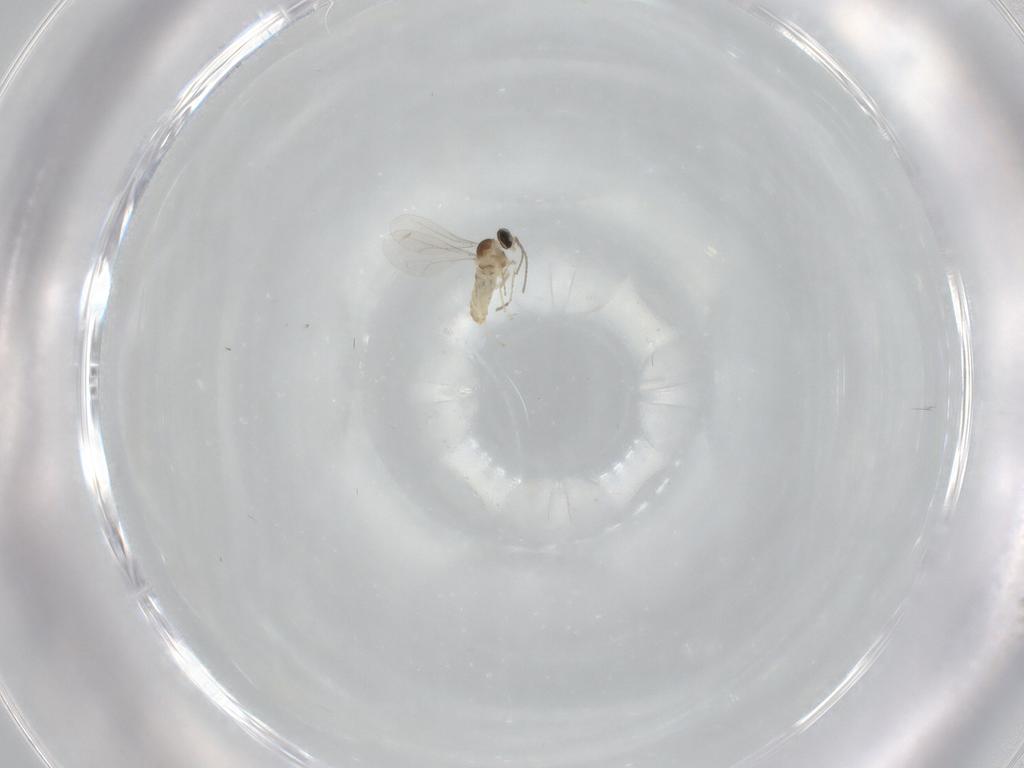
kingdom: Animalia
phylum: Arthropoda
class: Insecta
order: Diptera
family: Cecidomyiidae
